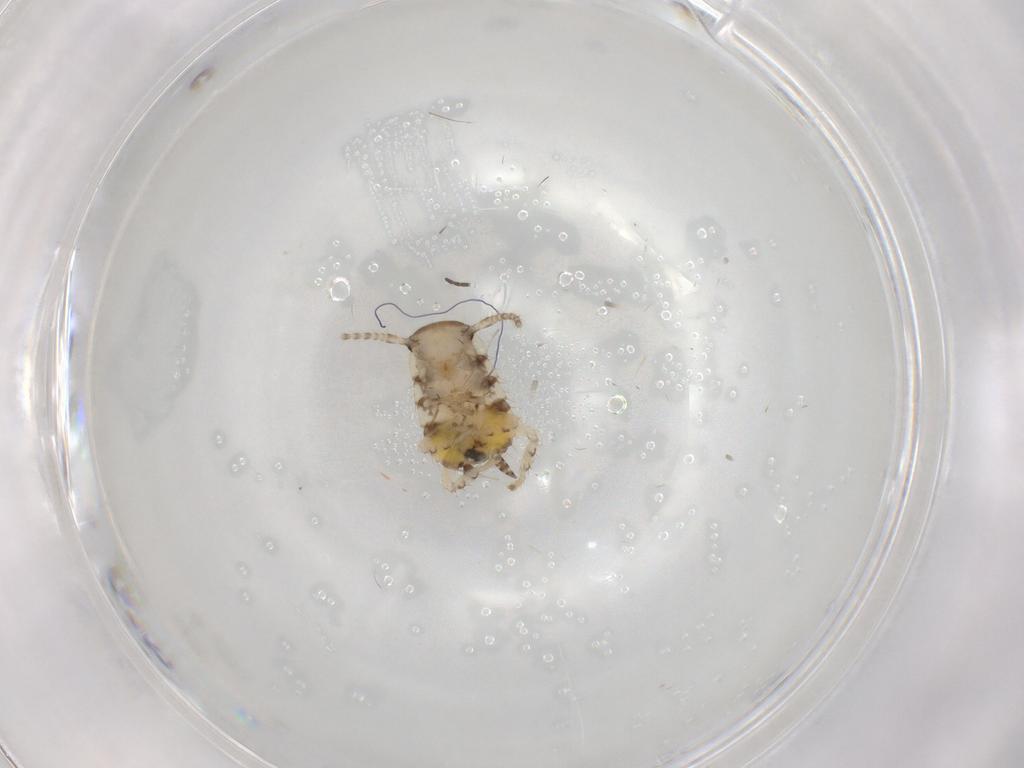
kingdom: Animalia
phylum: Arthropoda
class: Insecta
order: Blattodea
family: Ectobiidae
